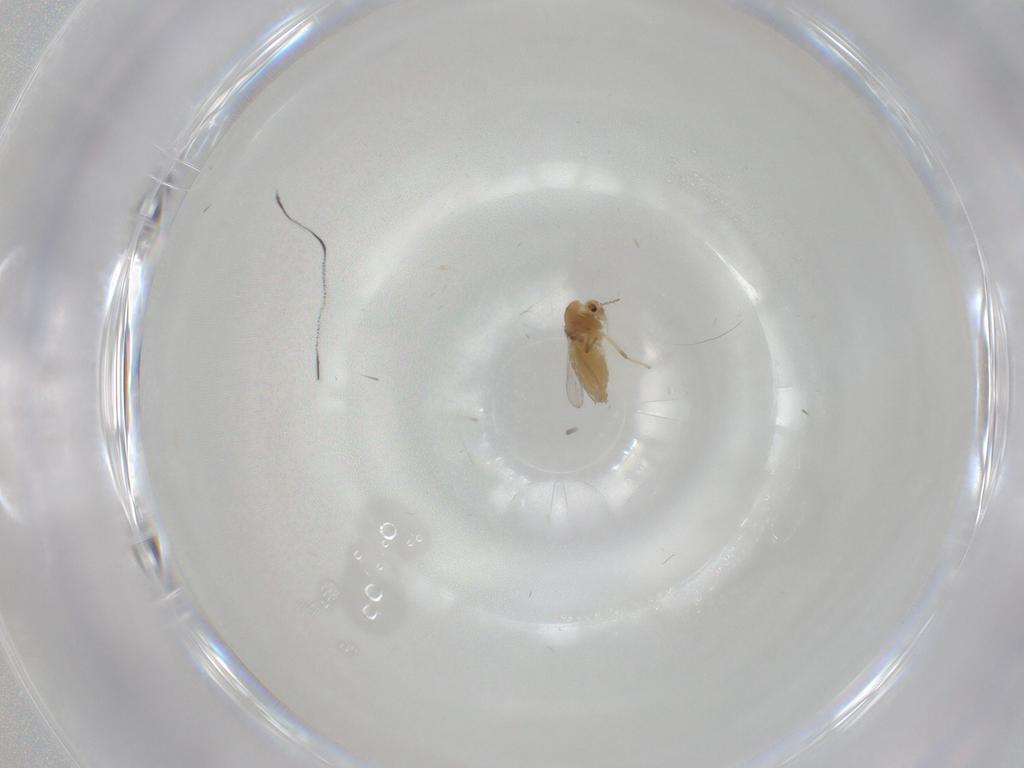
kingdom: Animalia
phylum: Arthropoda
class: Insecta
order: Diptera
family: Chironomidae
